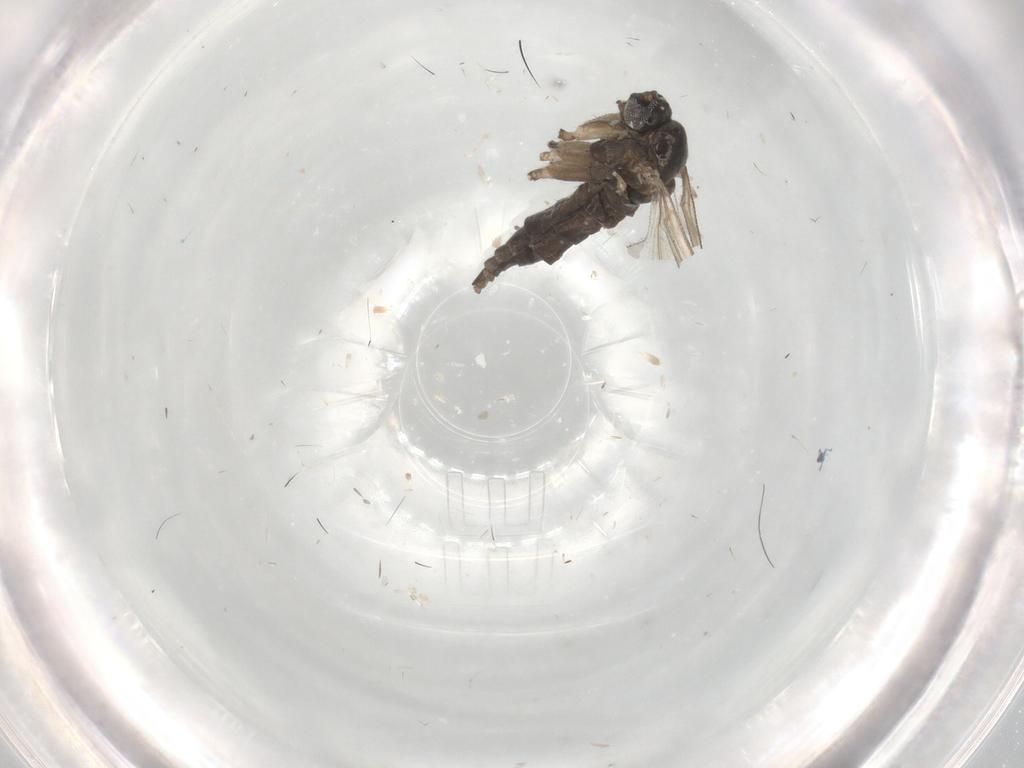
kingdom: Animalia
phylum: Arthropoda
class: Insecta
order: Diptera
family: Sciaridae
